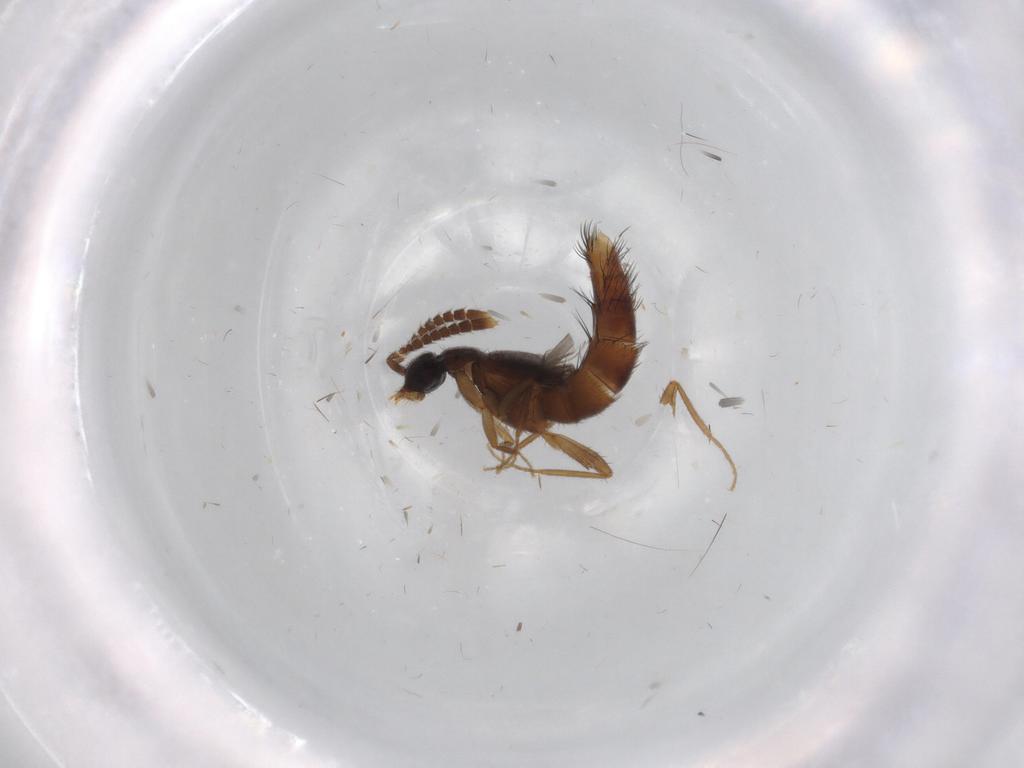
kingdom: Animalia
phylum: Arthropoda
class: Insecta
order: Coleoptera
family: Staphylinidae
